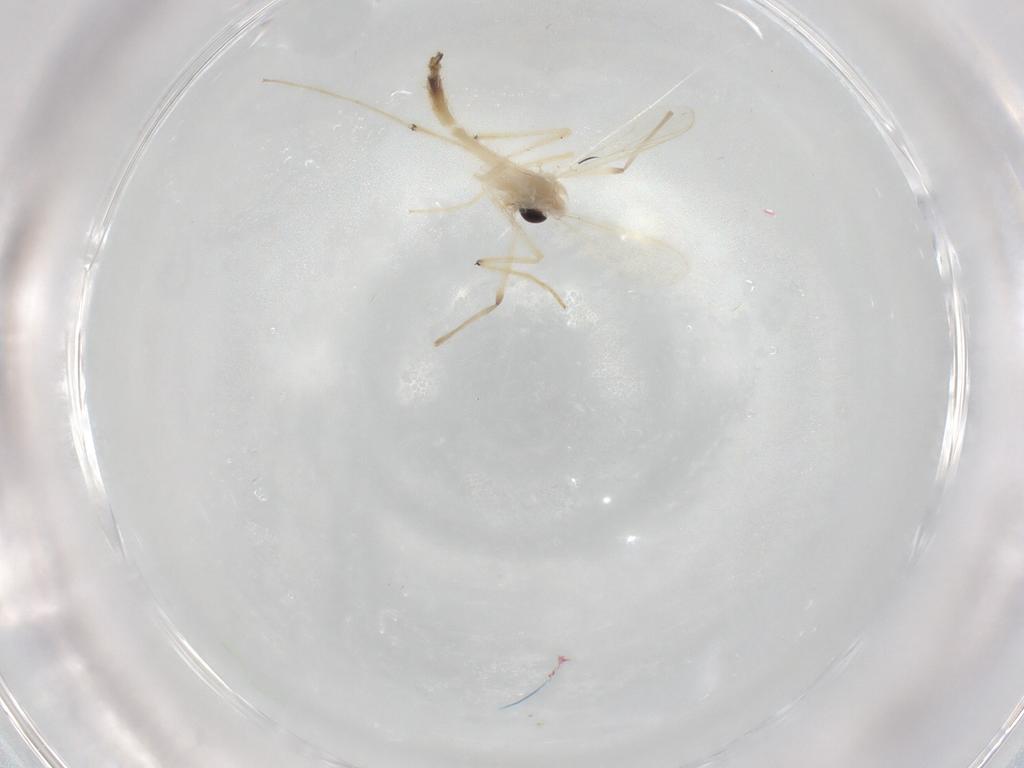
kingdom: Animalia
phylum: Arthropoda
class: Insecta
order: Diptera
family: Chironomidae
